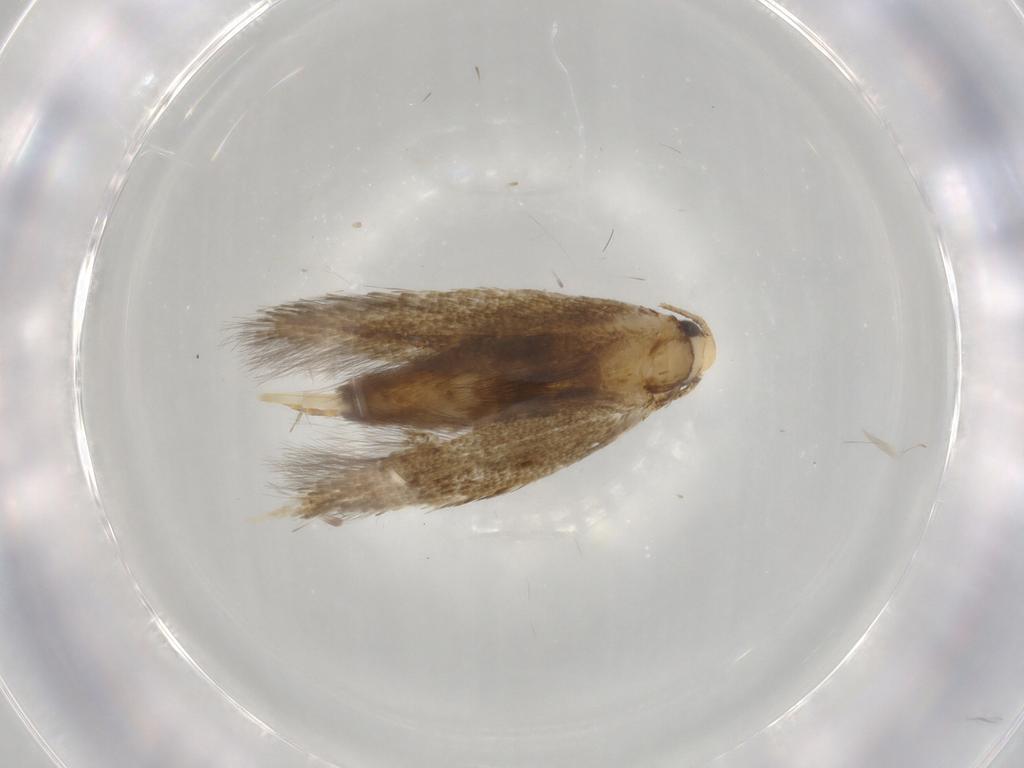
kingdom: Animalia
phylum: Arthropoda
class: Insecta
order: Lepidoptera
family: Tineidae
